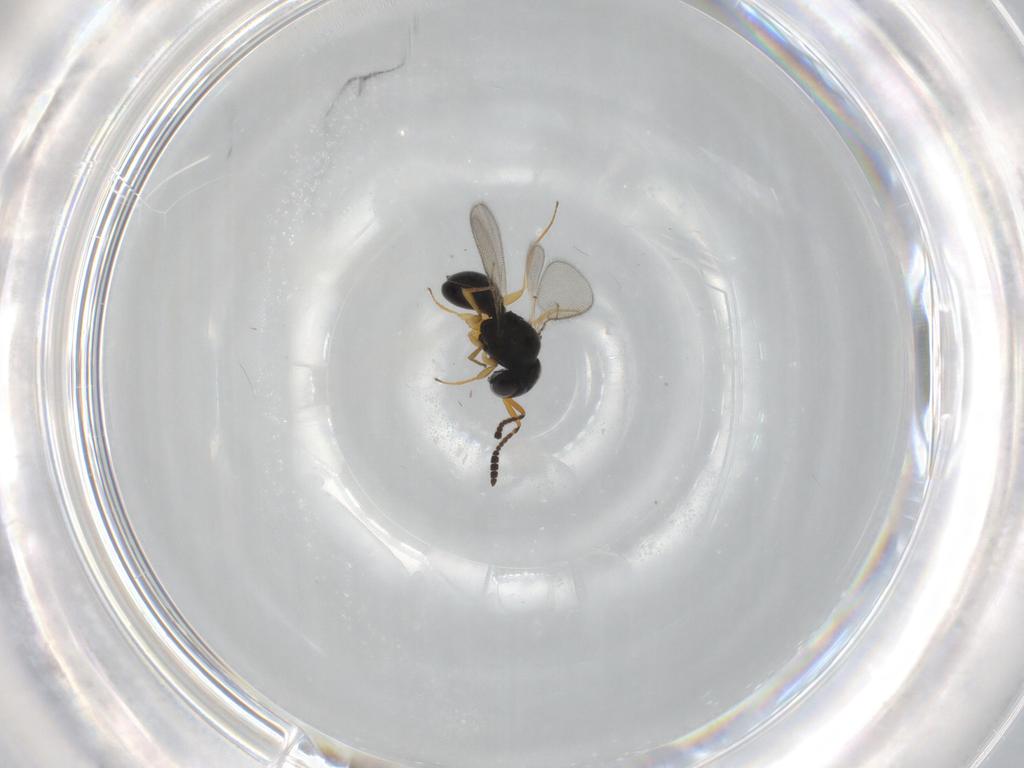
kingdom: Animalia
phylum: Arthropoda
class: Insecta
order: Hymenoptera
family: Scelionidae
